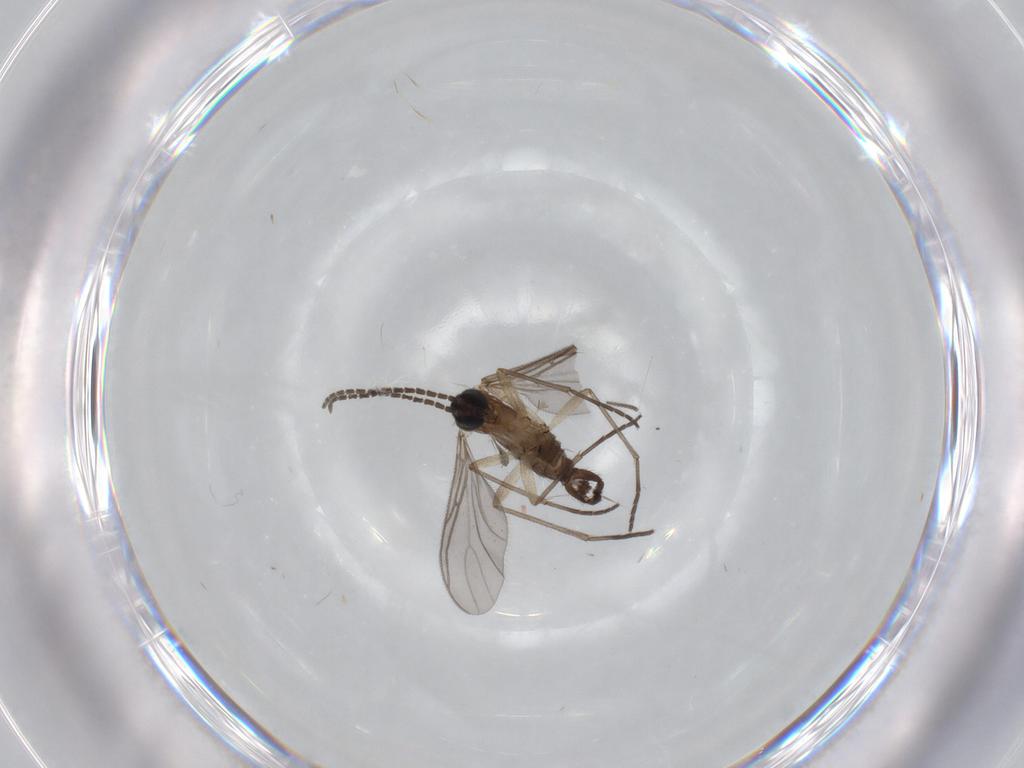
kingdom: Animalia
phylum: Arthropoda
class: Insecta
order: Diptera
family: Sciaridae
